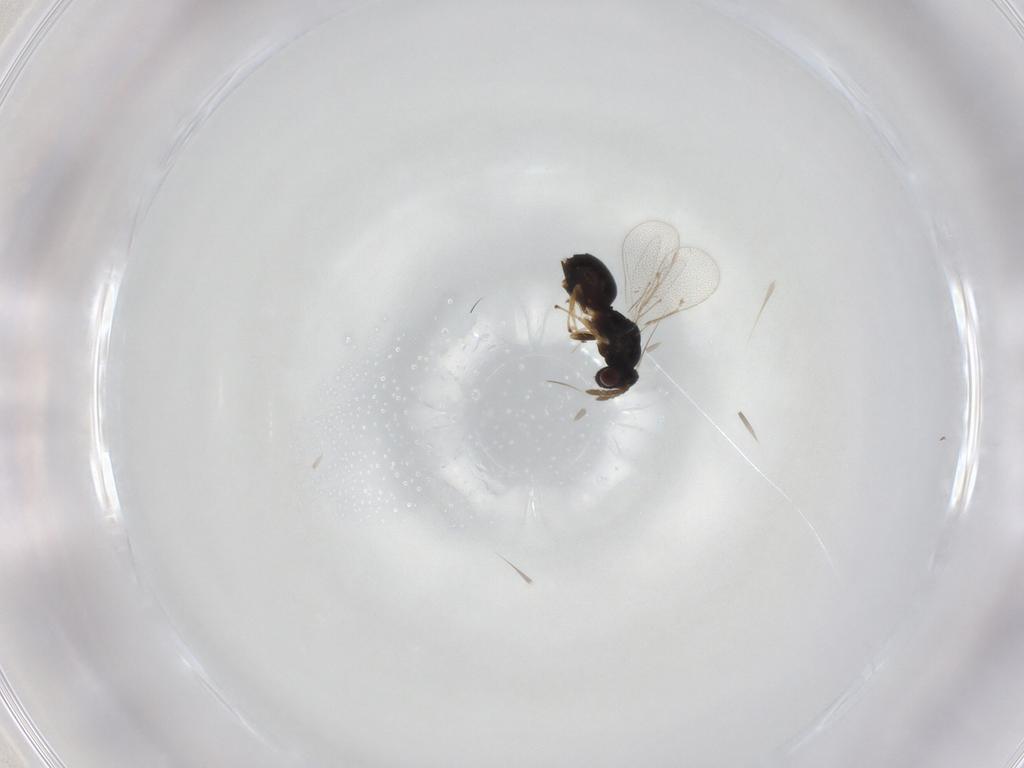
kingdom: Animalia
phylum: Arthropoda
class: Insecta
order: Hymenoptera
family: Eulophidae
